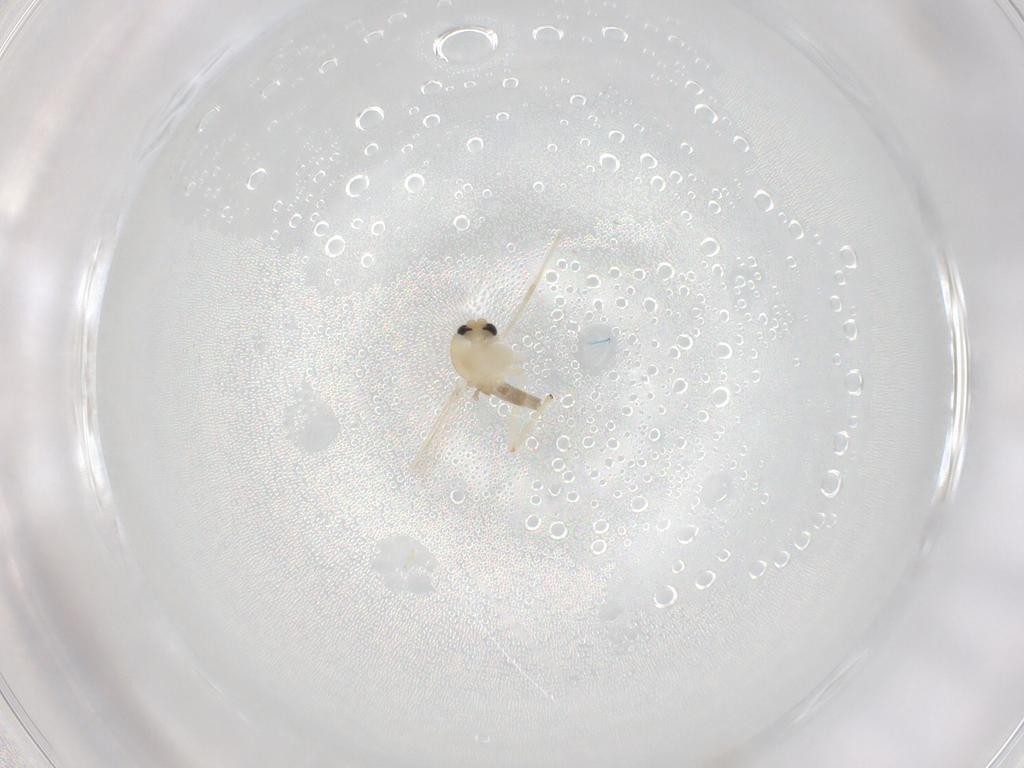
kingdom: Animalia
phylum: Arthropoda
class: Insecta
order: Diptera
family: Chironomidae
